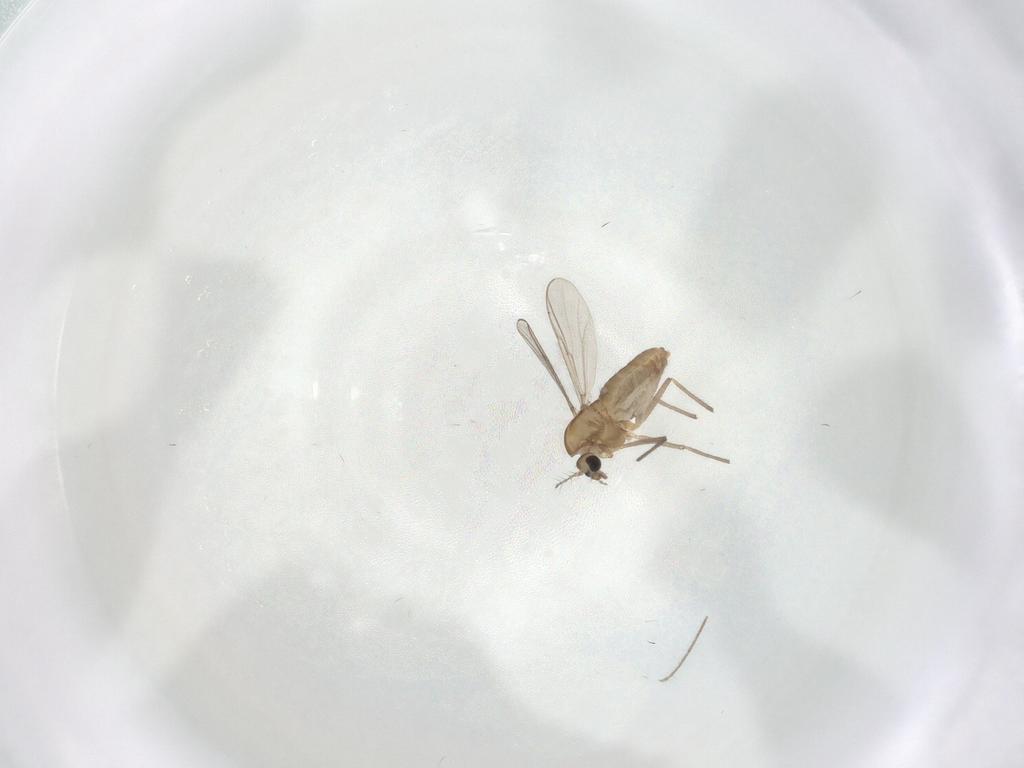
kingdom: Animalia
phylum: Arthropoda
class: Insecta
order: Diptera
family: Chironomidae
